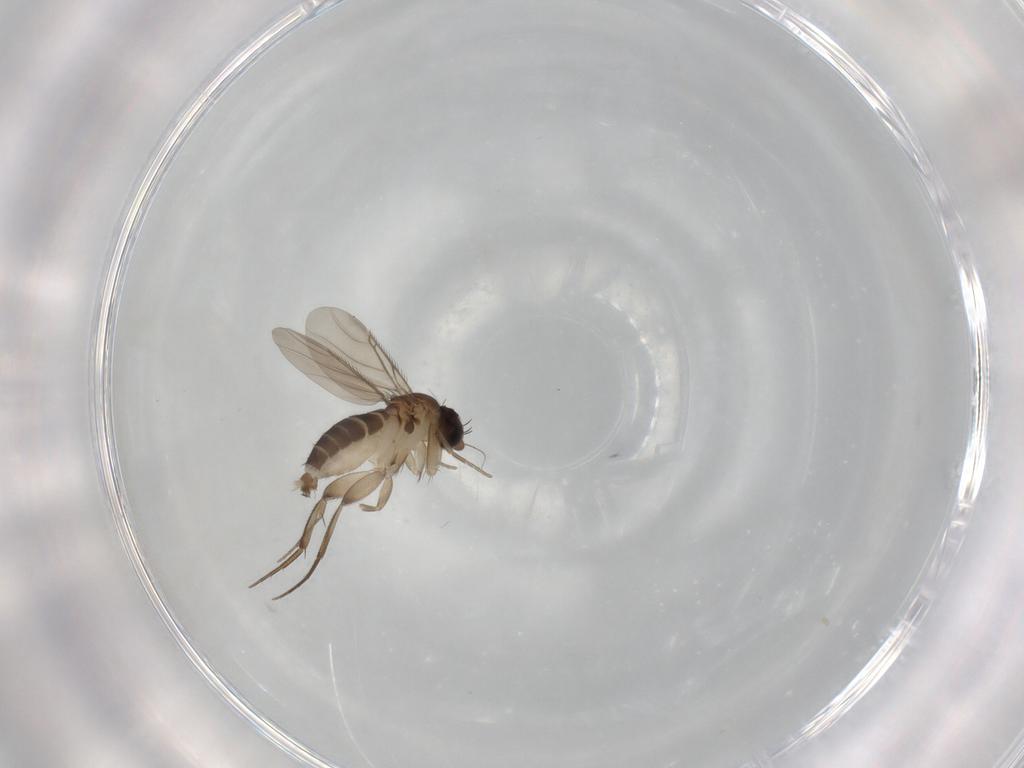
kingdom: Animalia
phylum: Arthropoda
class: Insecta
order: Diptera
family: Phoridae
